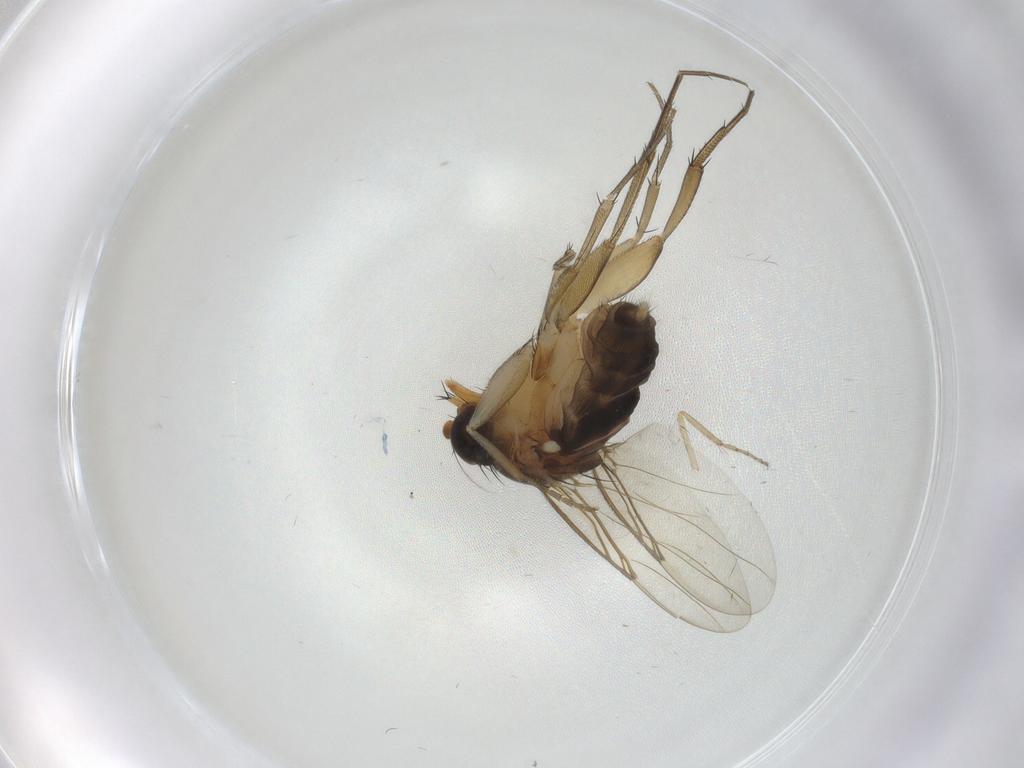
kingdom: Animalia
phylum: Arthropoda
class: Insecta
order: Diptera
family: Phoridae
